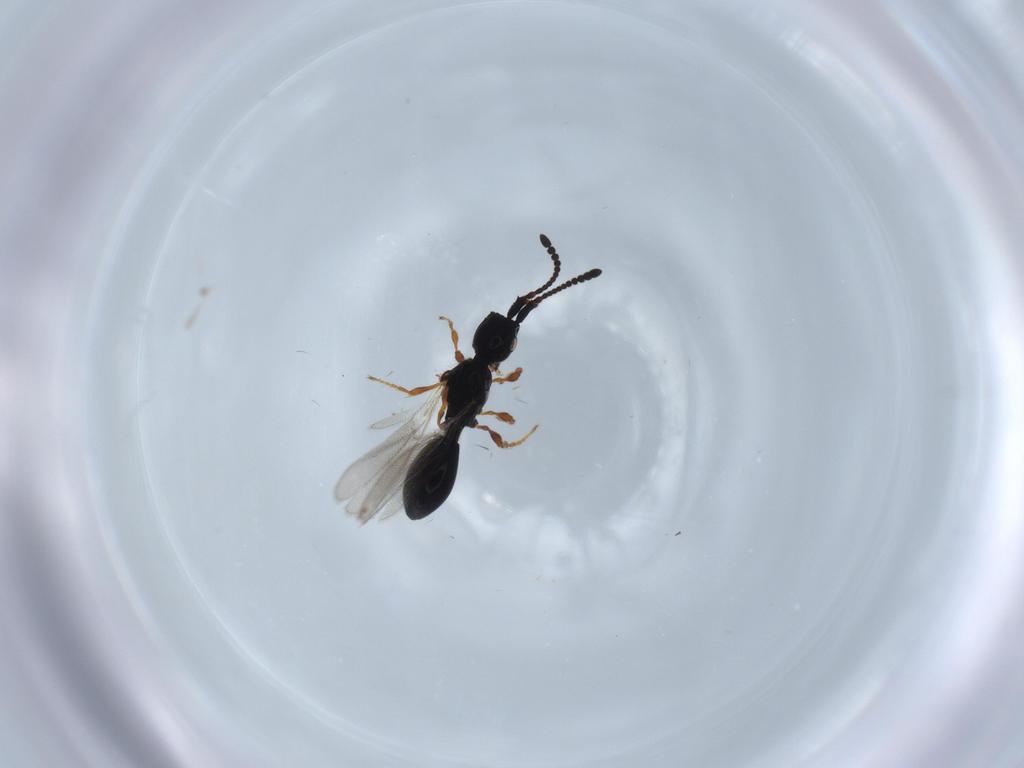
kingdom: Animalia
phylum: Arthropoda
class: Insecta
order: Hymenoptera
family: Diapriidae
